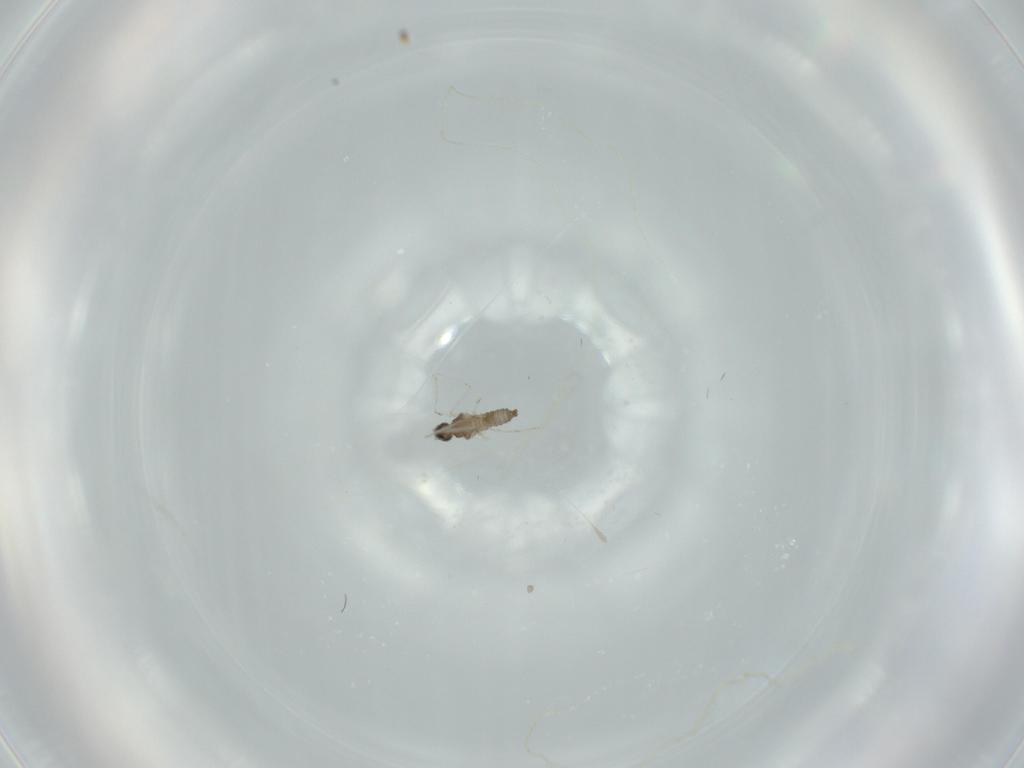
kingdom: Animalia
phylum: Arthropoda
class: Insecta
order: Diptera
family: Cecidomyiidae
